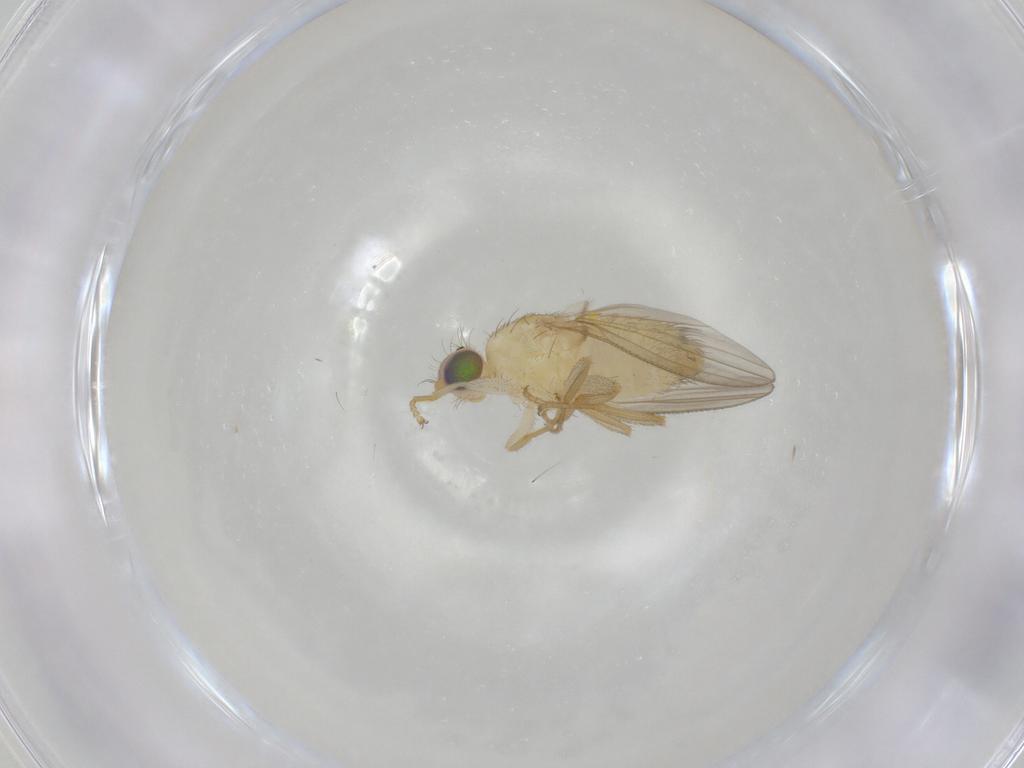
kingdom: Animalia
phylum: Arthropoda
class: Insecta
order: Diptera
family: Chyromyidae
